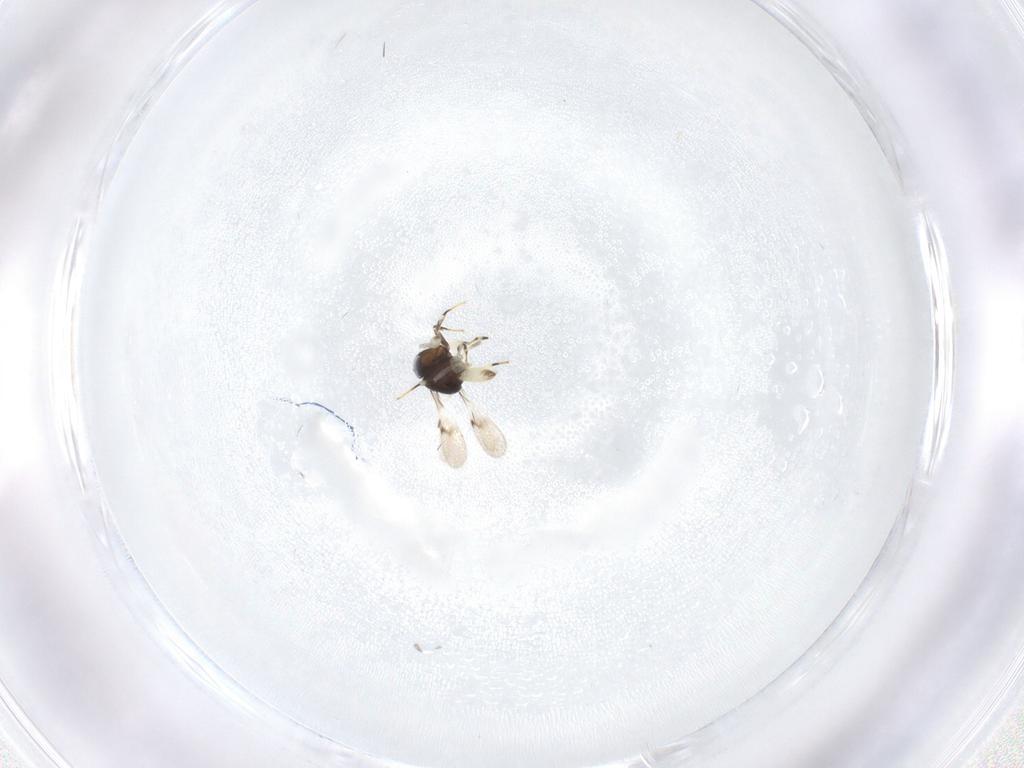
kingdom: Animalia
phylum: Arthropoda
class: Insecta
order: Hymenoptera
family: Scelionidae
